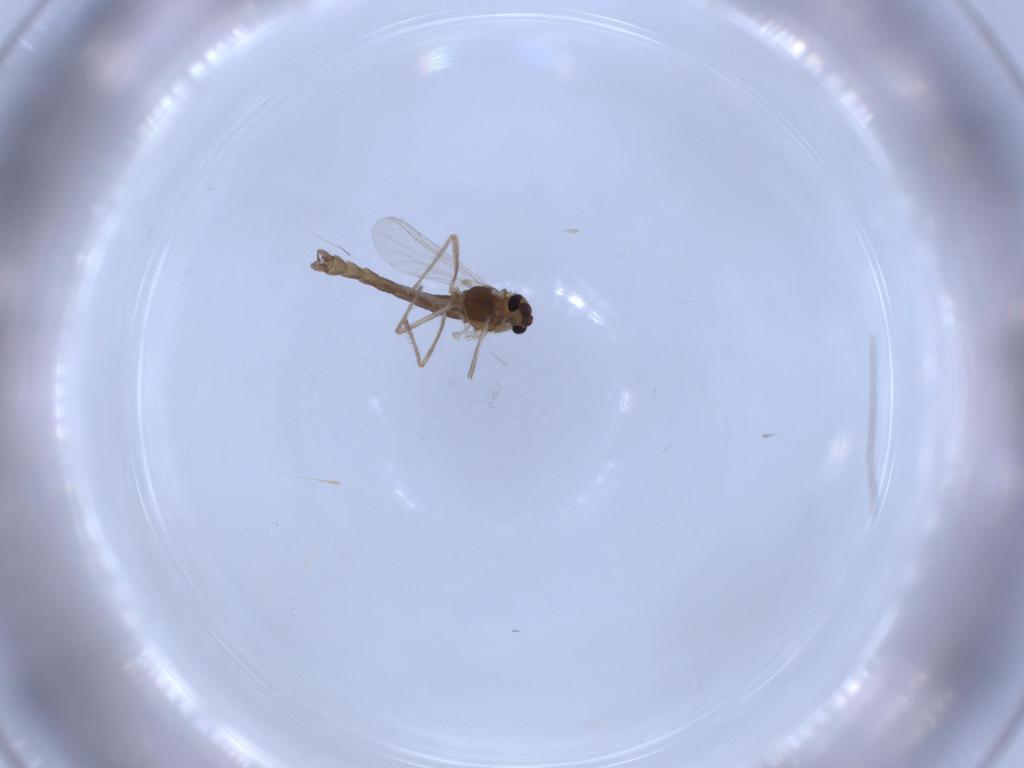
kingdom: Animalia
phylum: Arthropoda
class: Insecta
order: Diptera
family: Chironomidae
